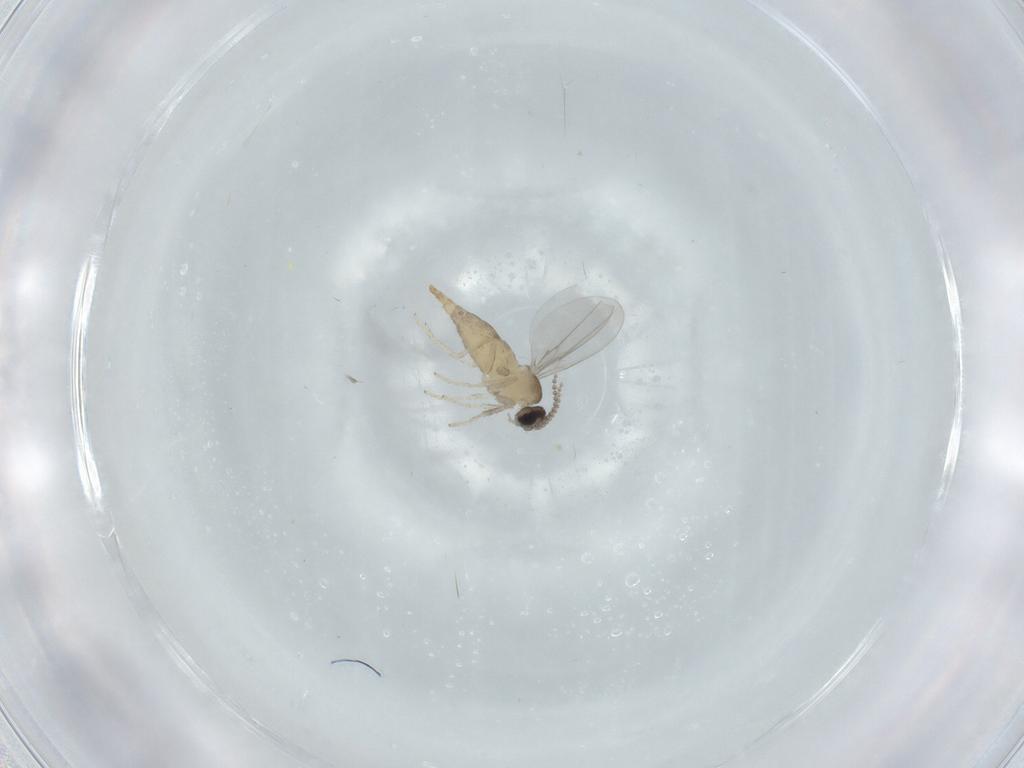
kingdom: Animalia
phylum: Arthropoda
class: Insecta
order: Diptera
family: Cecidomyiidae
